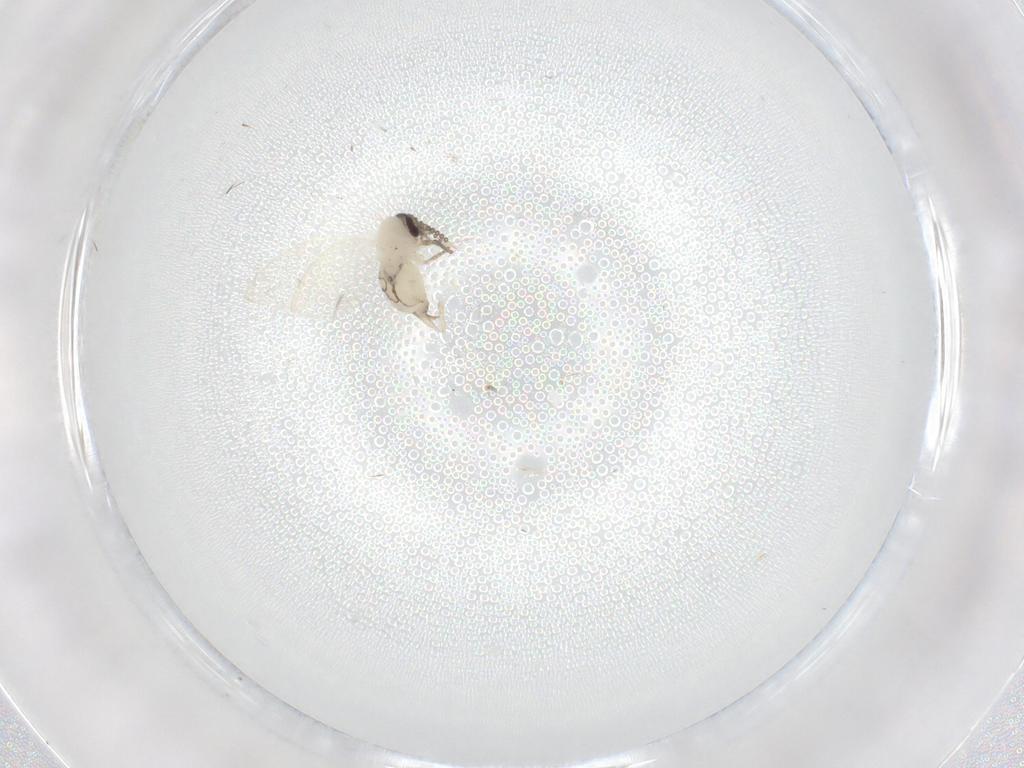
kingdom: Animalia
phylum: Arthropoda
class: Insecta
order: Diptera
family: Psychodidae
